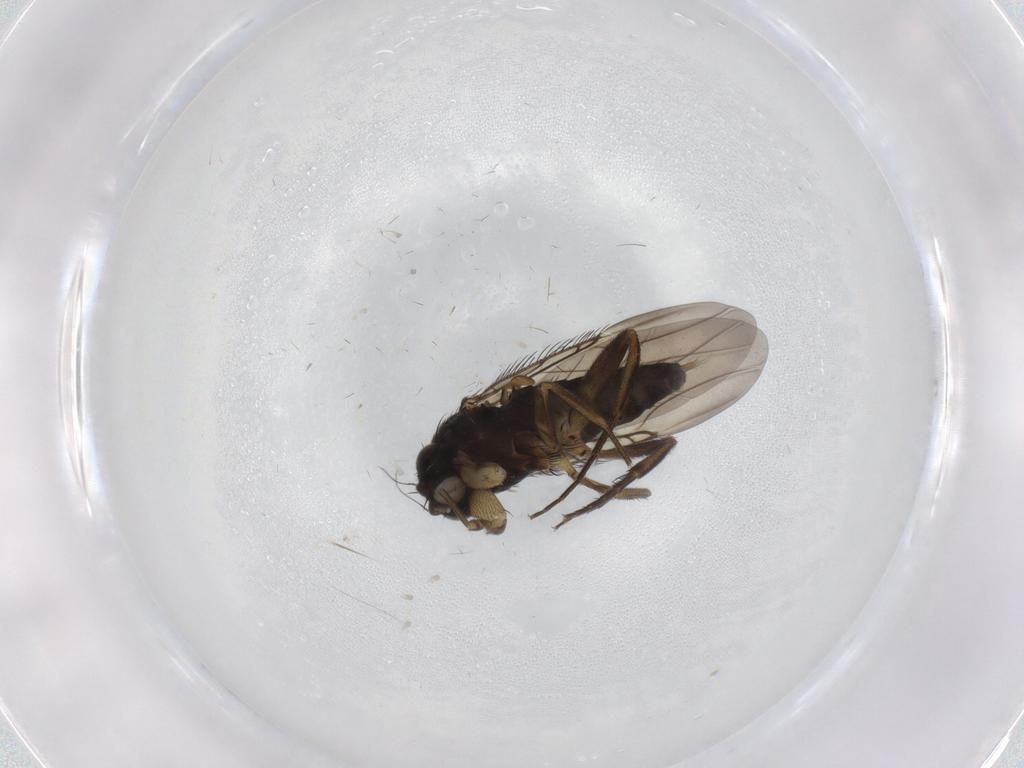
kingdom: Animalia
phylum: Arthropoda
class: Insecta
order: Diptera
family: Phoridae
